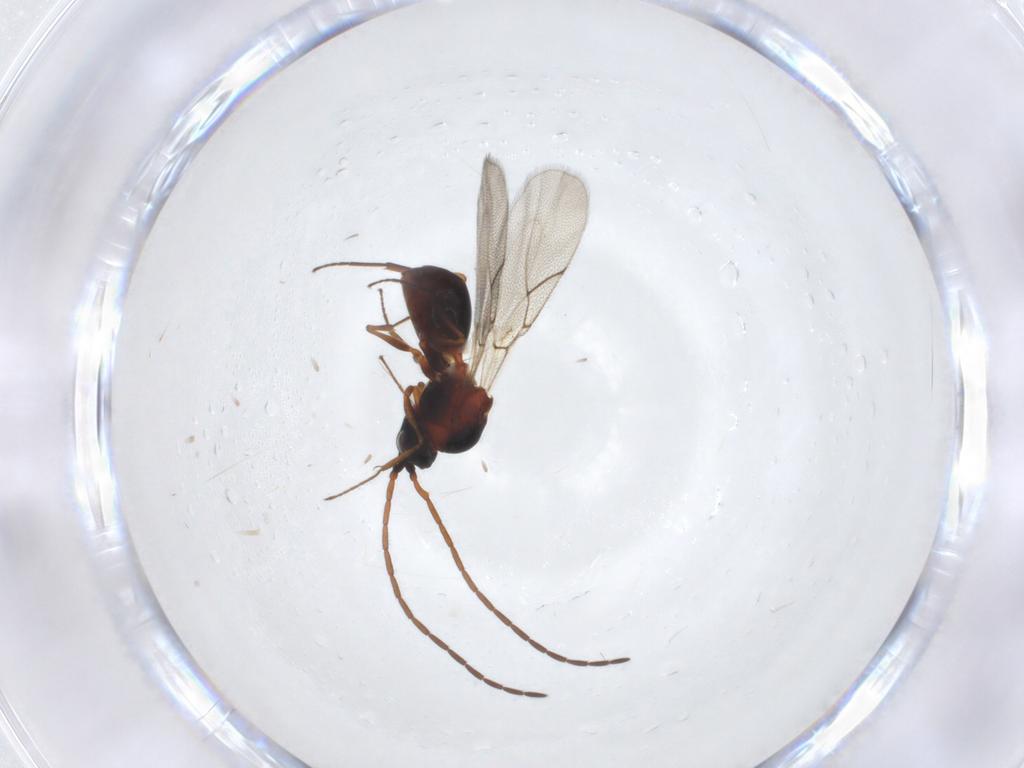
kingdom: Animalia
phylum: Arthropoda
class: Insecta
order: Hymenoptera
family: Figitidae
